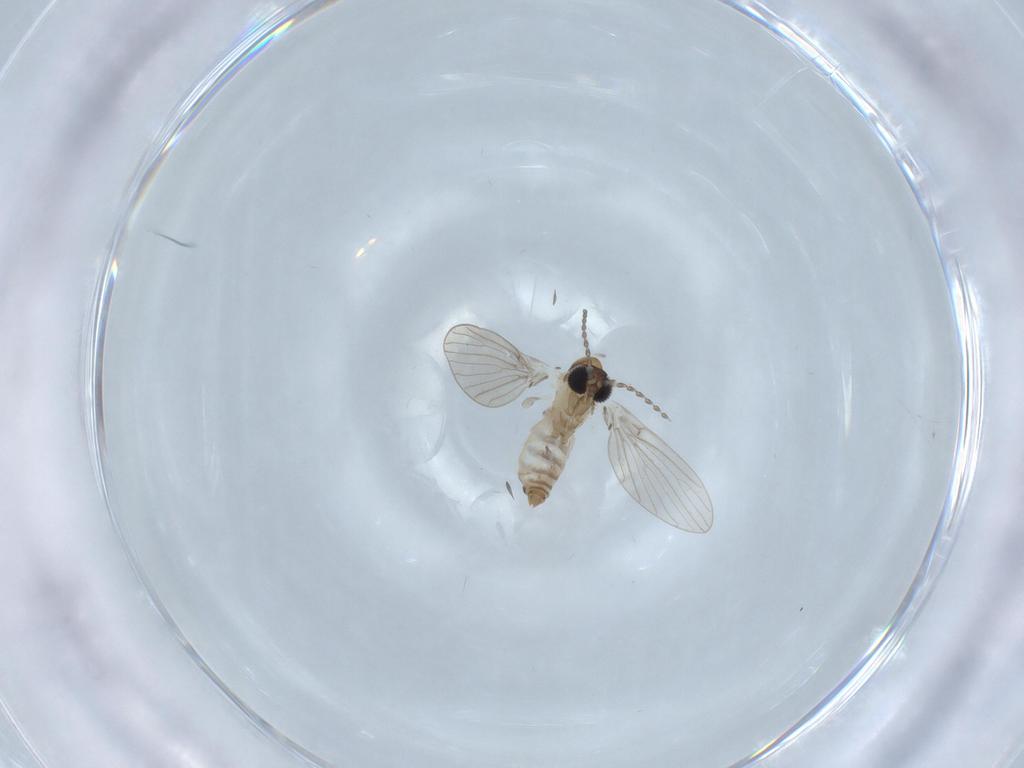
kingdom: Animalia
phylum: Arthropoda
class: Insecta
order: Diptera
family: Psychodidae
